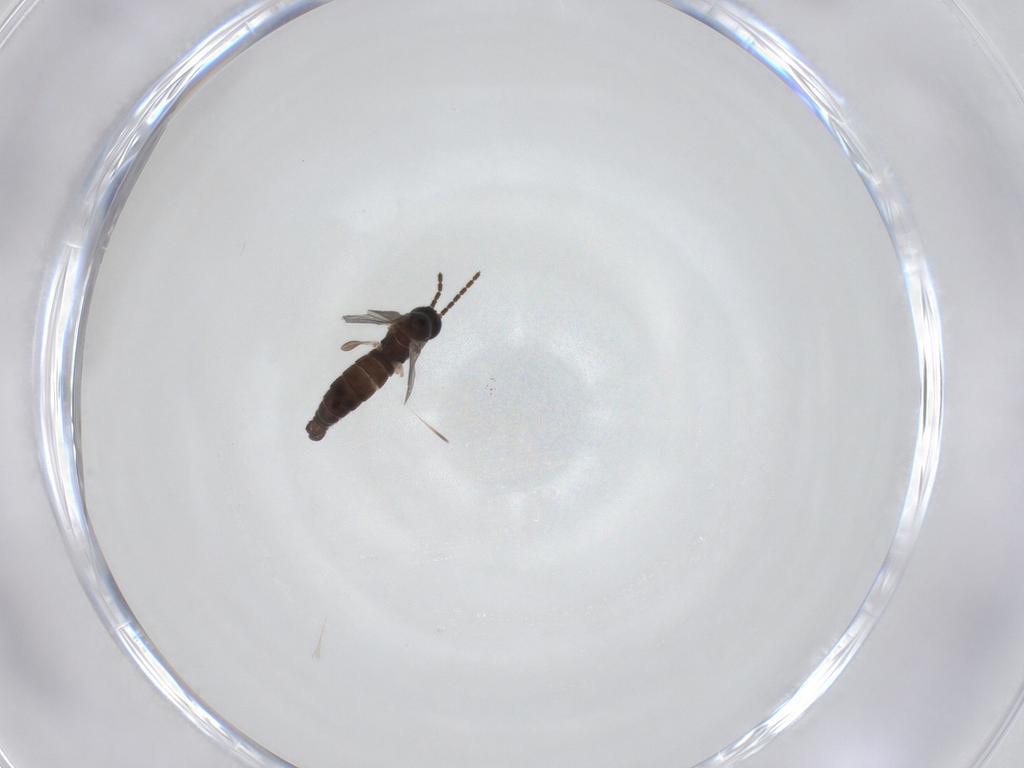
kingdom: Animalia
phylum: Arthropoda
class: Insecta
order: Diptera
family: Sciaridae
